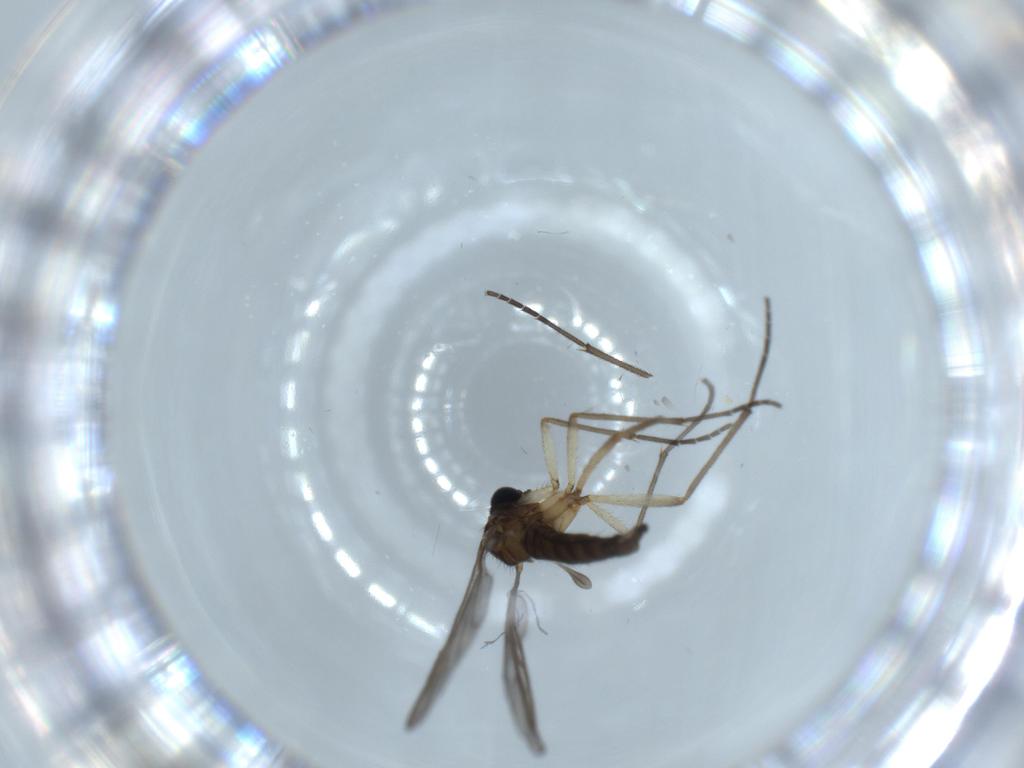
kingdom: Animalia
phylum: Arthropoda
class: Insecta
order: Diptera
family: Sciaridae
